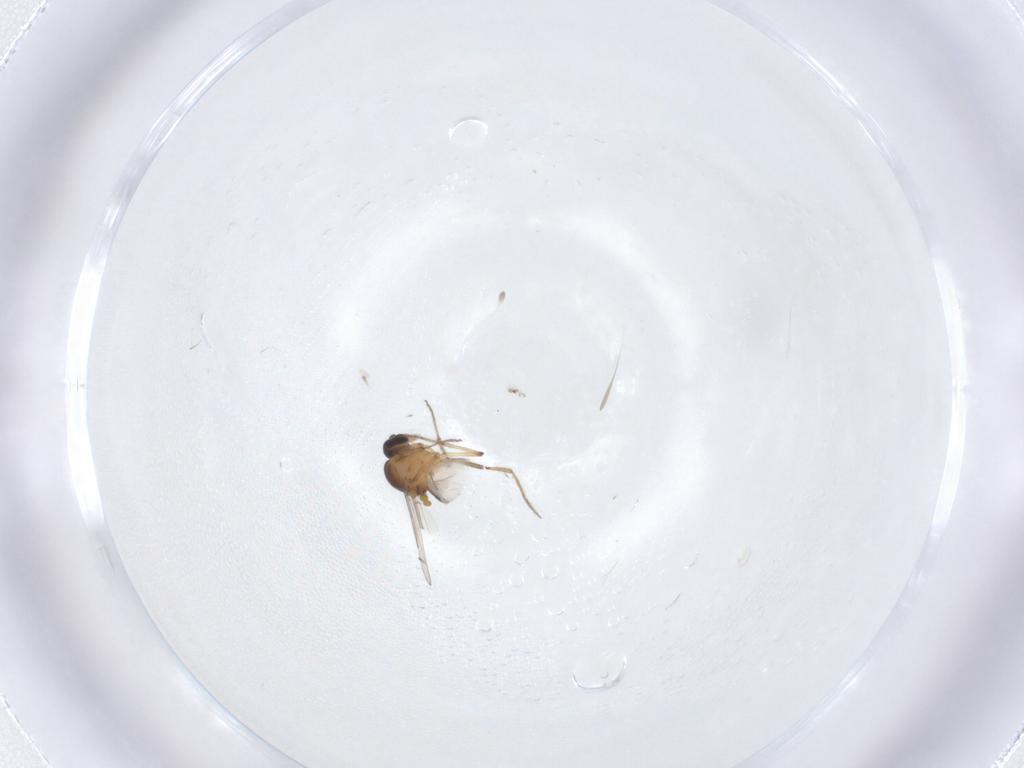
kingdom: Animalia
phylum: Arthropoda
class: Insecta
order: Diptera
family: Ceratopogonidae
